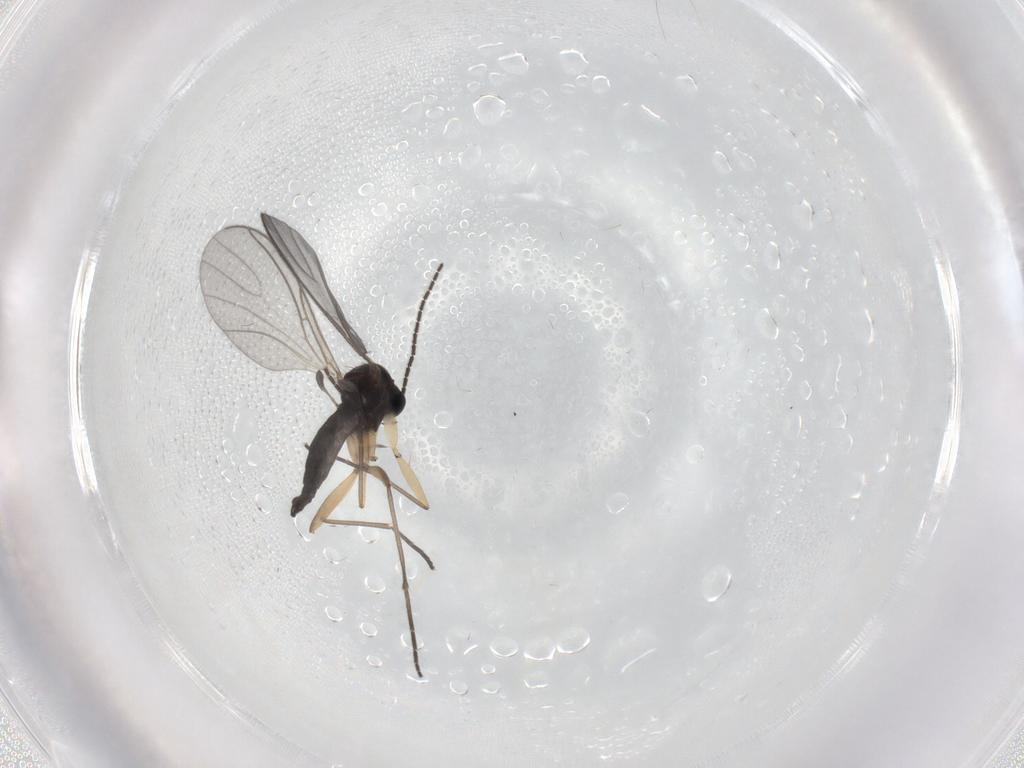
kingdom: Animalia
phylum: Arthropoda
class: Insecta
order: Diptera
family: Sciaridae
